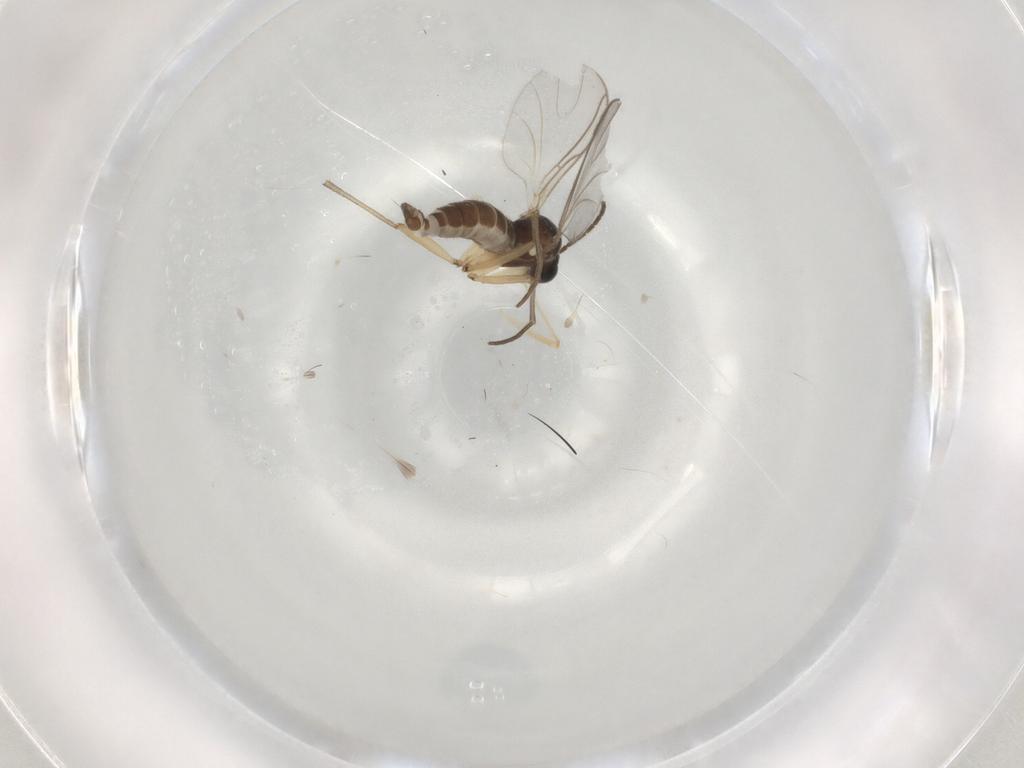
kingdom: Animalia
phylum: Arthropoda
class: Insecta
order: Diptera
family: Sciaridae
